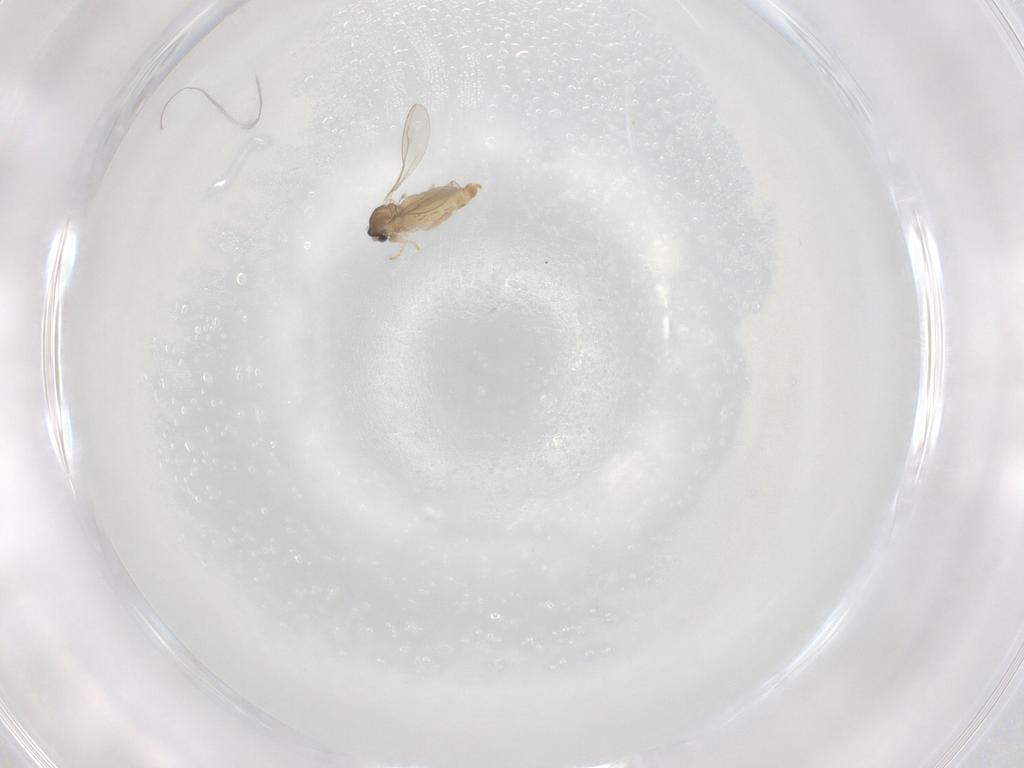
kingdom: Animalia
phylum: Arthropoda
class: Insecta
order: Diptera
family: Cecidomyiidae
